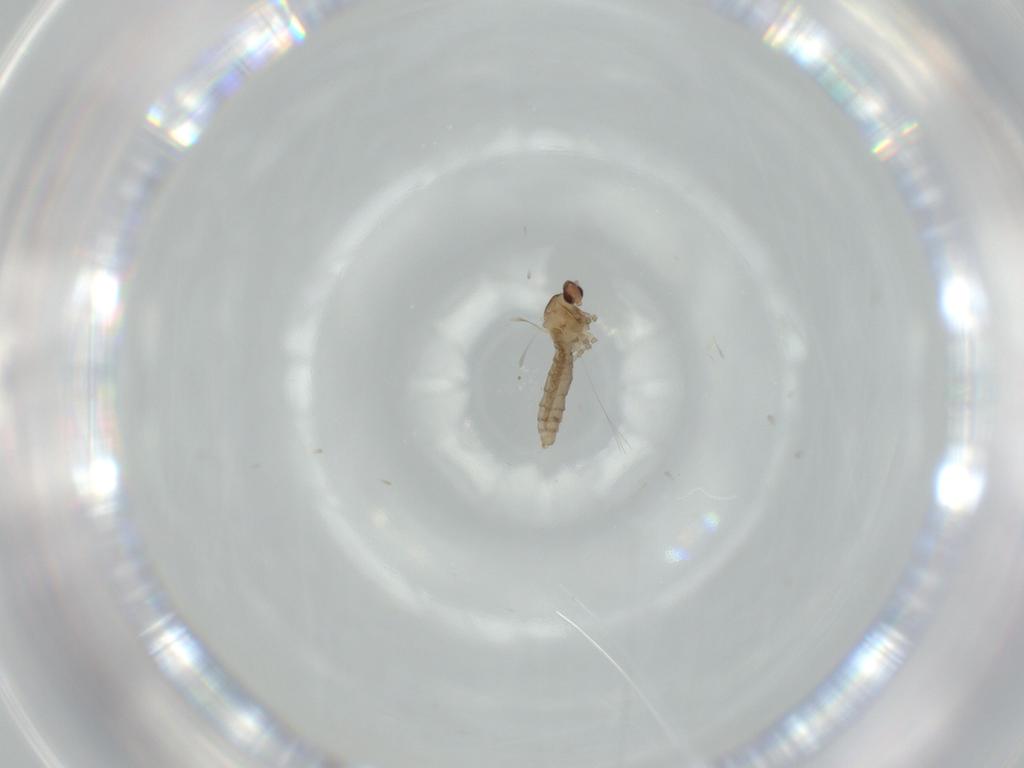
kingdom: Animalia
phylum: Arthropoda
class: Insecta
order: Diptera
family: Cecidomyiidae
